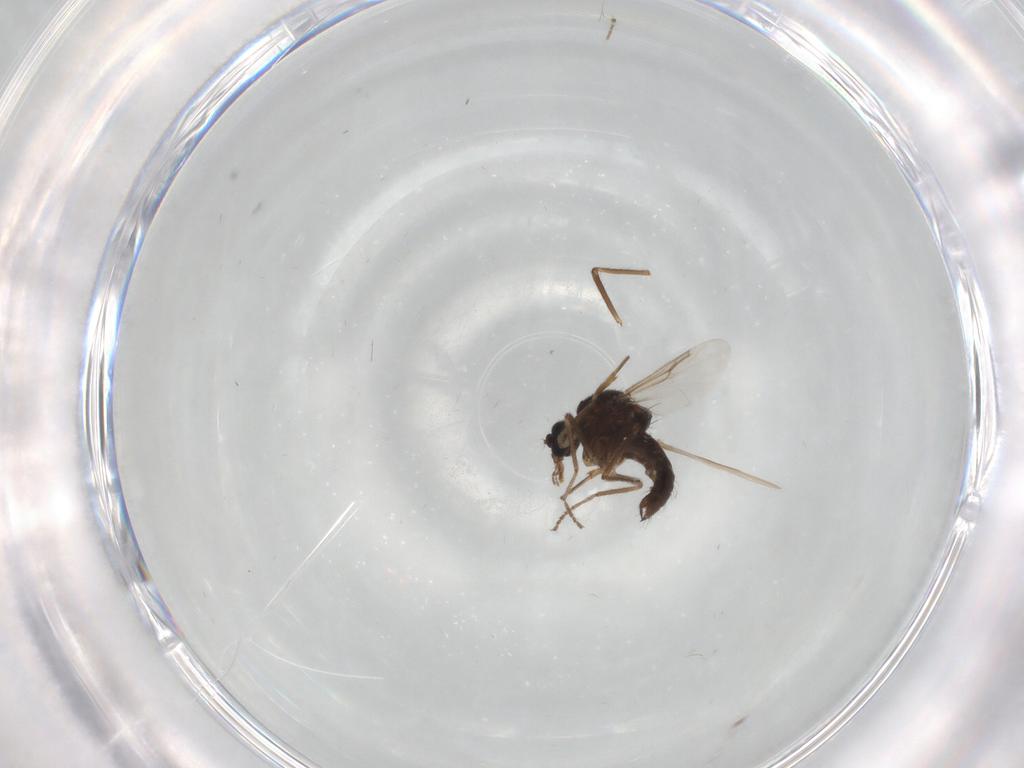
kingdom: Animalia
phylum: Arthropoda
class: Insecta
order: Diptera
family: Ceratopogonidae
